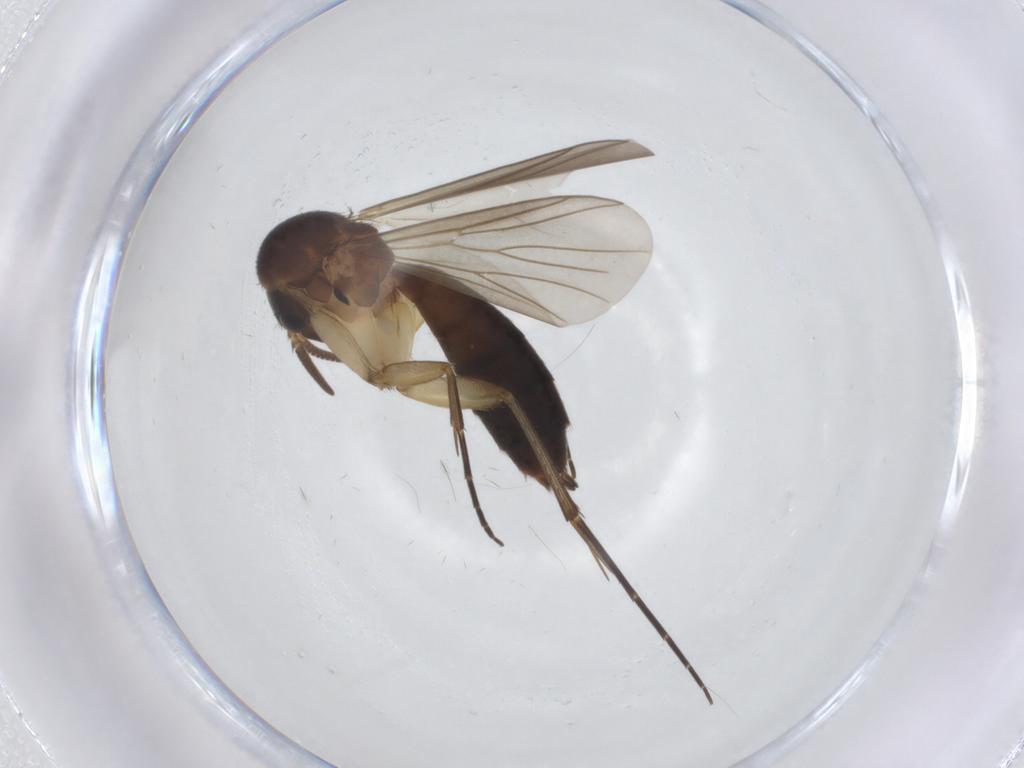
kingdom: Animalia
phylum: Arthropoda
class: Insecta
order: Diptera
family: Mycetophilidae
